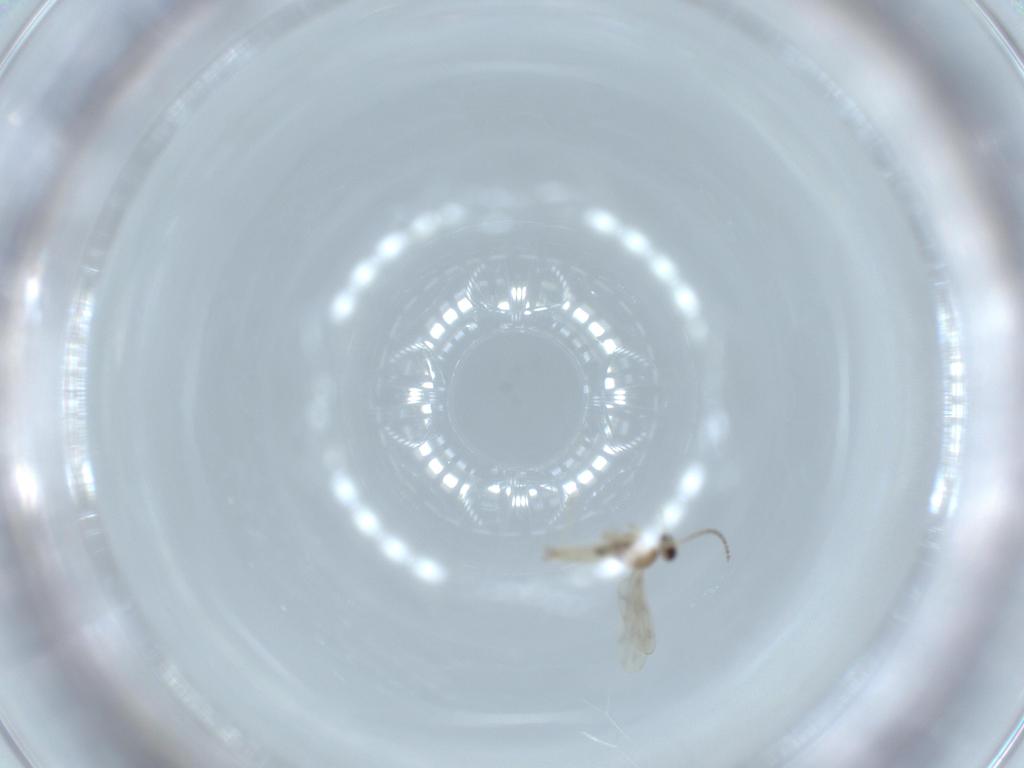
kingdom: Animalia
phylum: Arthropoda
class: Insecta
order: Diptera
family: Cecidomyiidae
